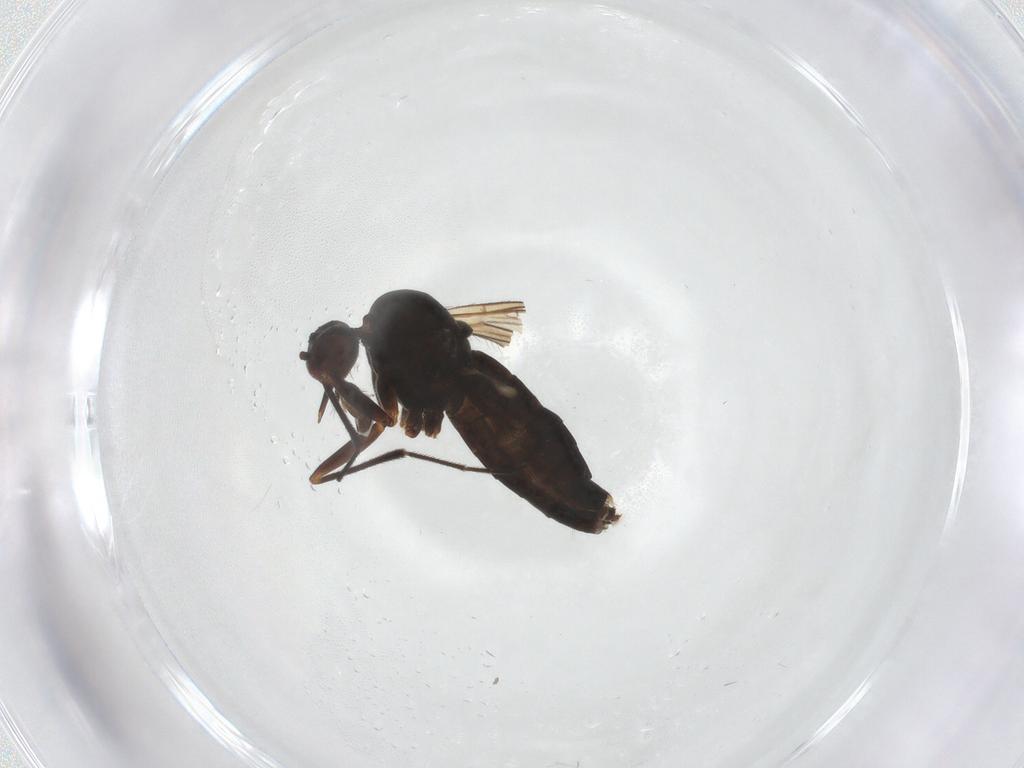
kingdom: Animalia
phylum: Arthropoda
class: Insecta
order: Diptera
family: Brachystomatidae
